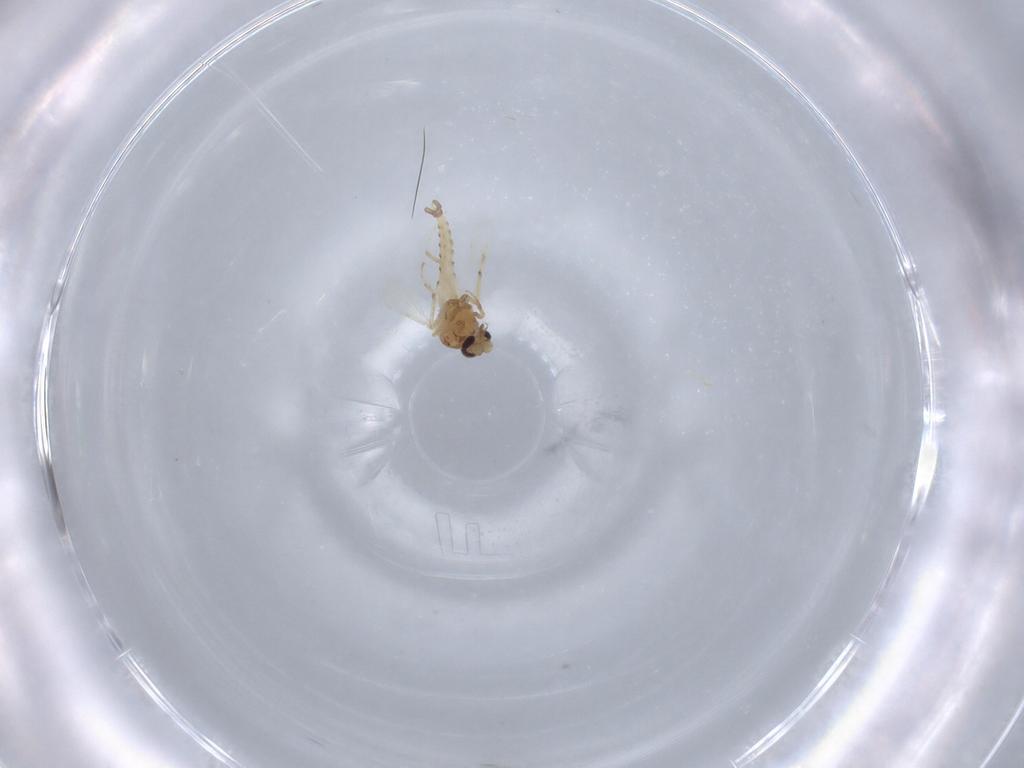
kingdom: Animalia
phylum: Arthropoda
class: Insecta
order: Diptera
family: Ceratopogonidae
